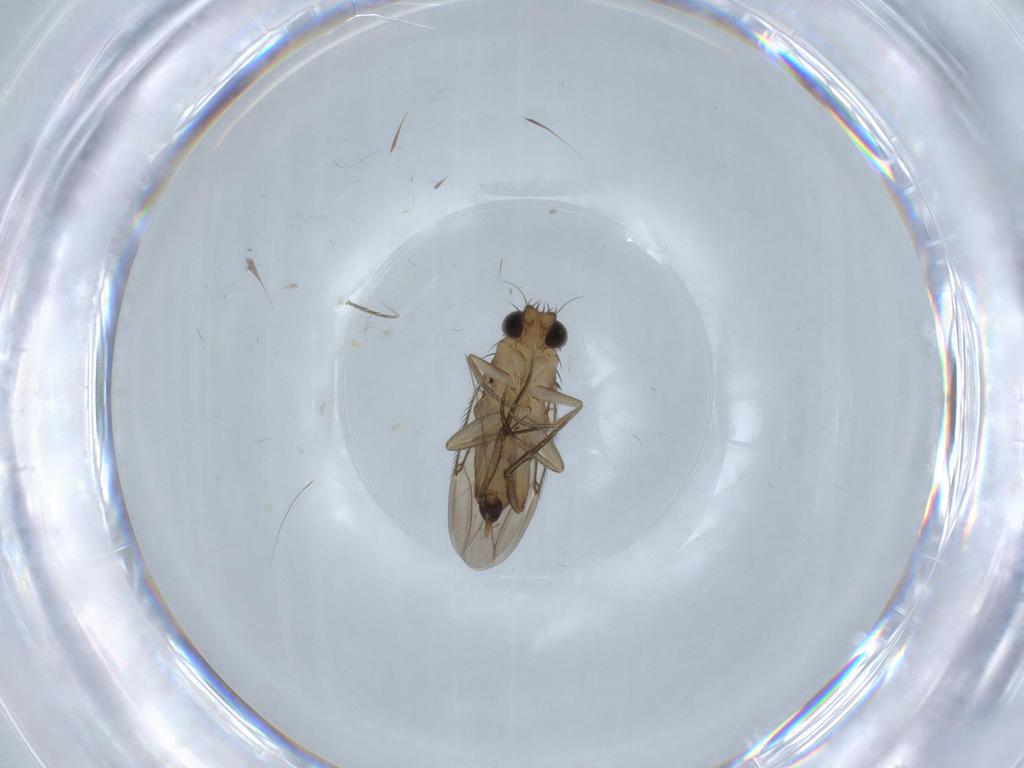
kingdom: Animalia
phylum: Arthropoda
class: Insecta
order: Diptera
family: Phoridae
